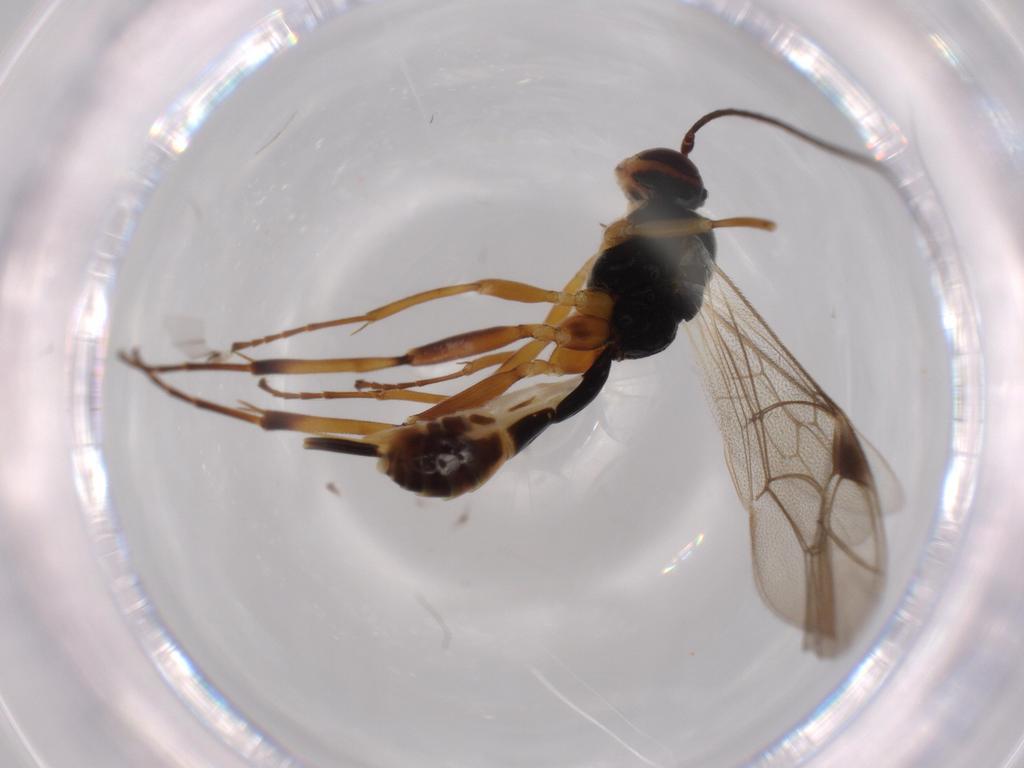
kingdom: Animalia
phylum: Arthropoda
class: Insecta
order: Hymenoptera
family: Ichneumonidae
